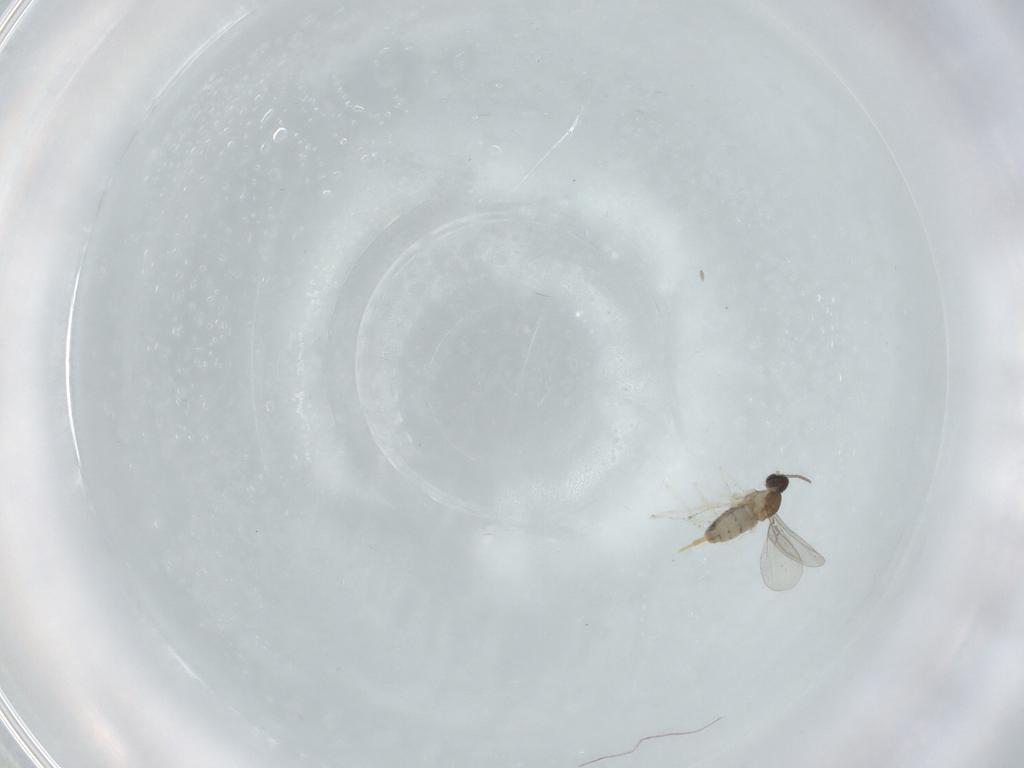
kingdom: Animalia
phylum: Arthropoda
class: Insecta
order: Diptera
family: Cecidomyiidae
